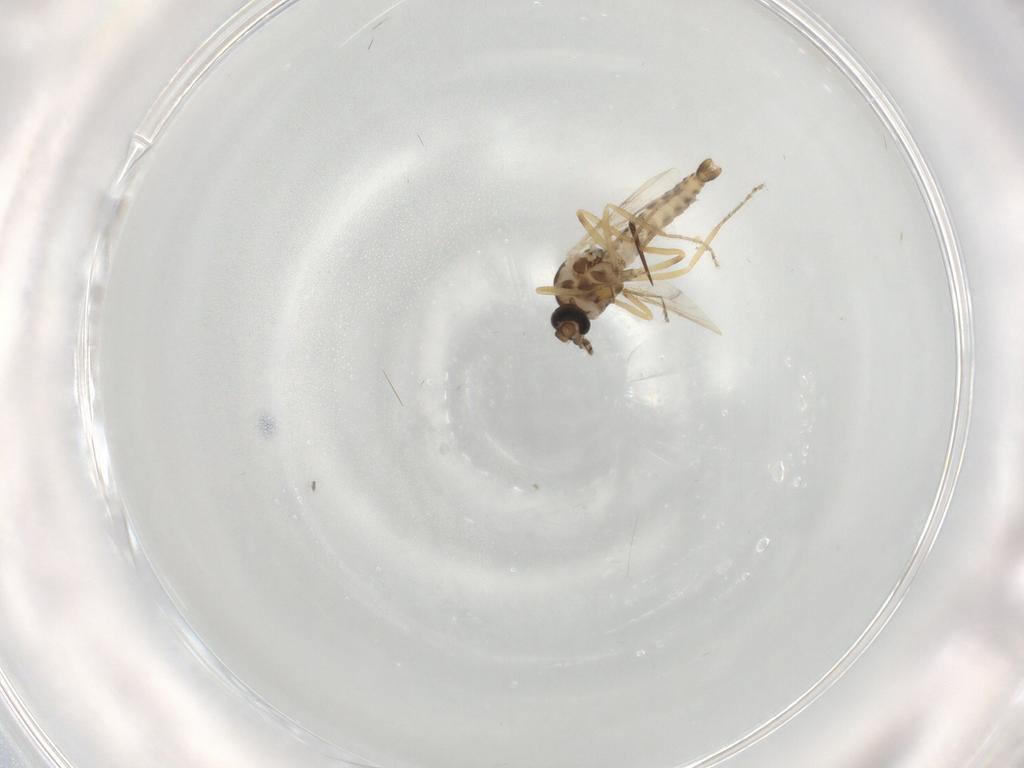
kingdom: Animalia
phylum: Arthropoda
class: Insecta
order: Diptera
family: Ceratopogonidae
